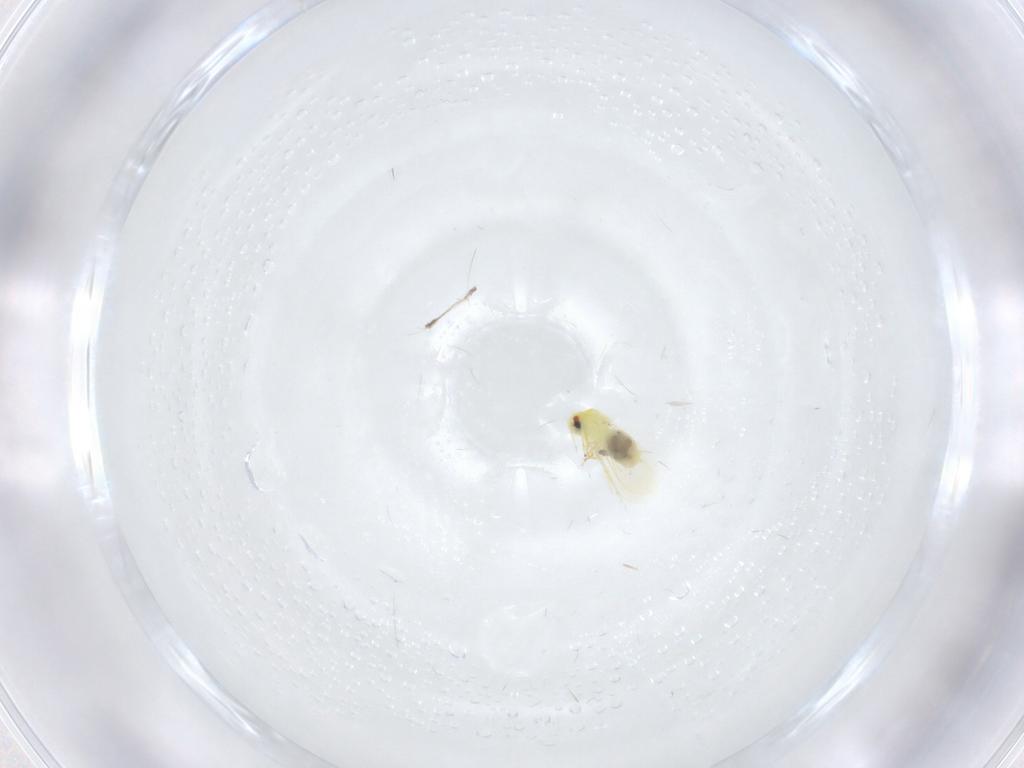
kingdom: Animalia
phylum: Arthropoda
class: Insecta
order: Hemiptera
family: Aleyrodidae
